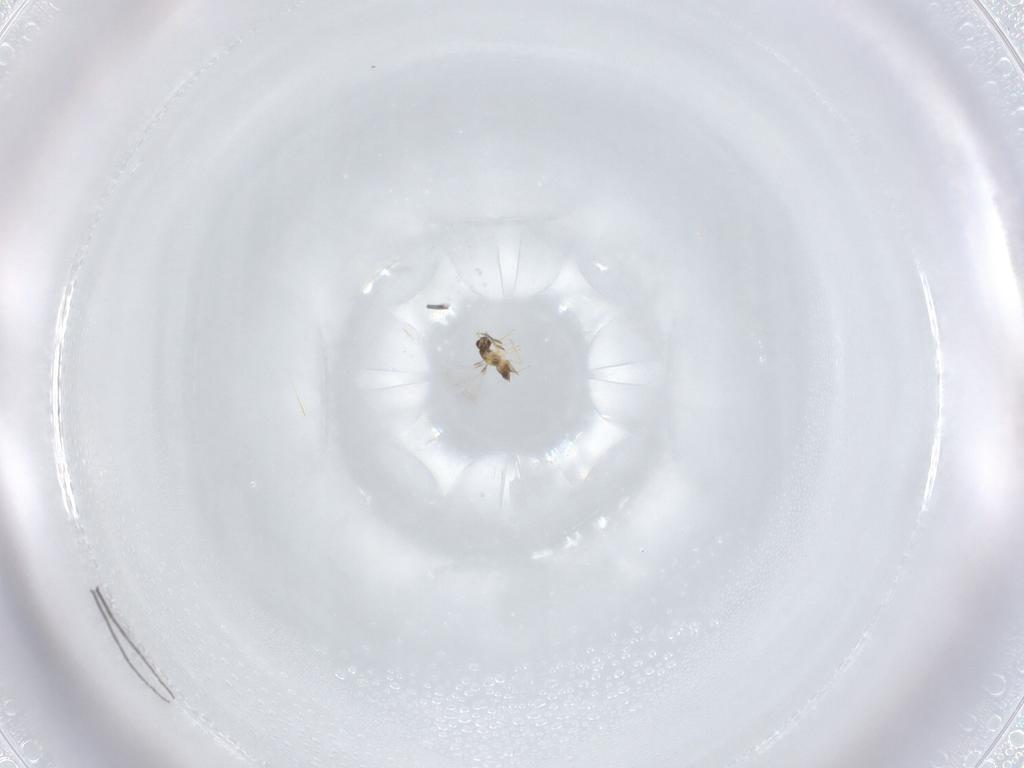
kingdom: Animalia
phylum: Arthropoda
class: Insecta
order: Psocodea
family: Lachesillidae
